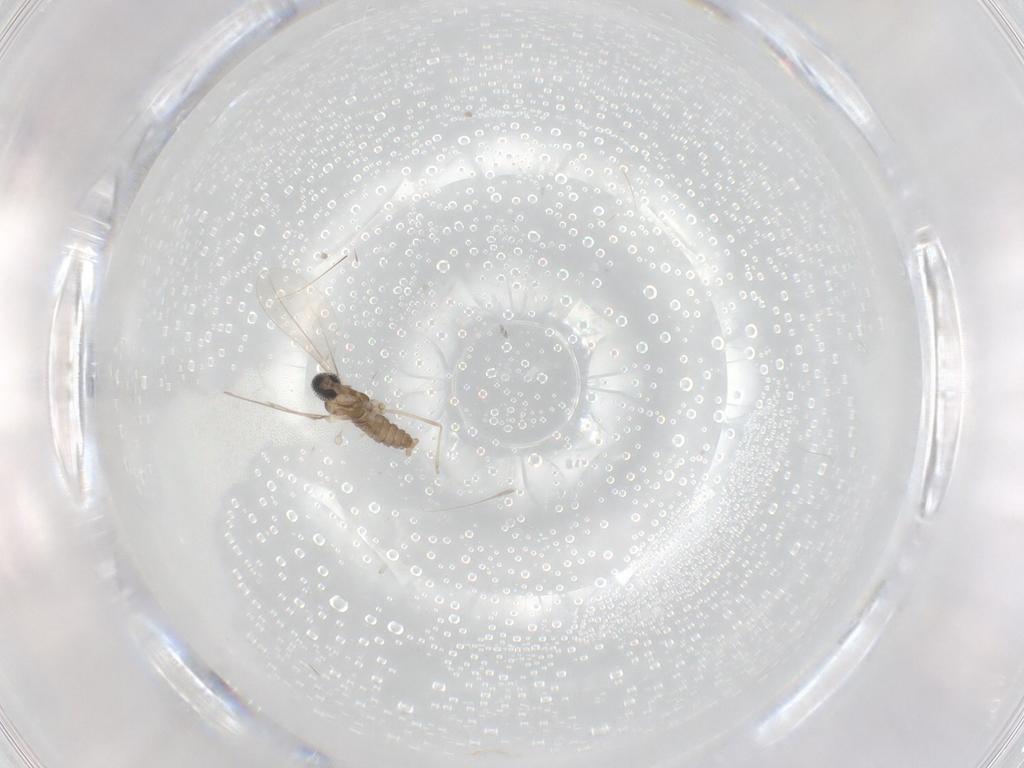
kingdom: Animalia
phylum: Arthropoda
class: Insecta
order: Diptera
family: Cecidomyiidae
